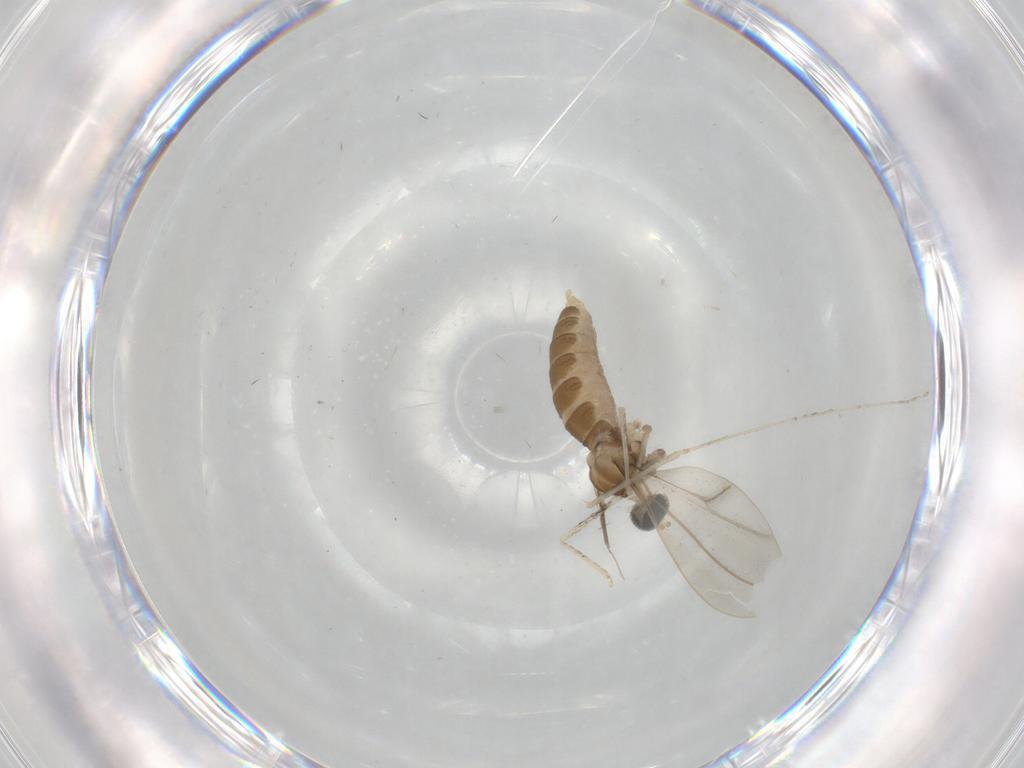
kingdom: Animalia
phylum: Arthropoda
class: Insecta
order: Diptera
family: Cecidomyiidae
